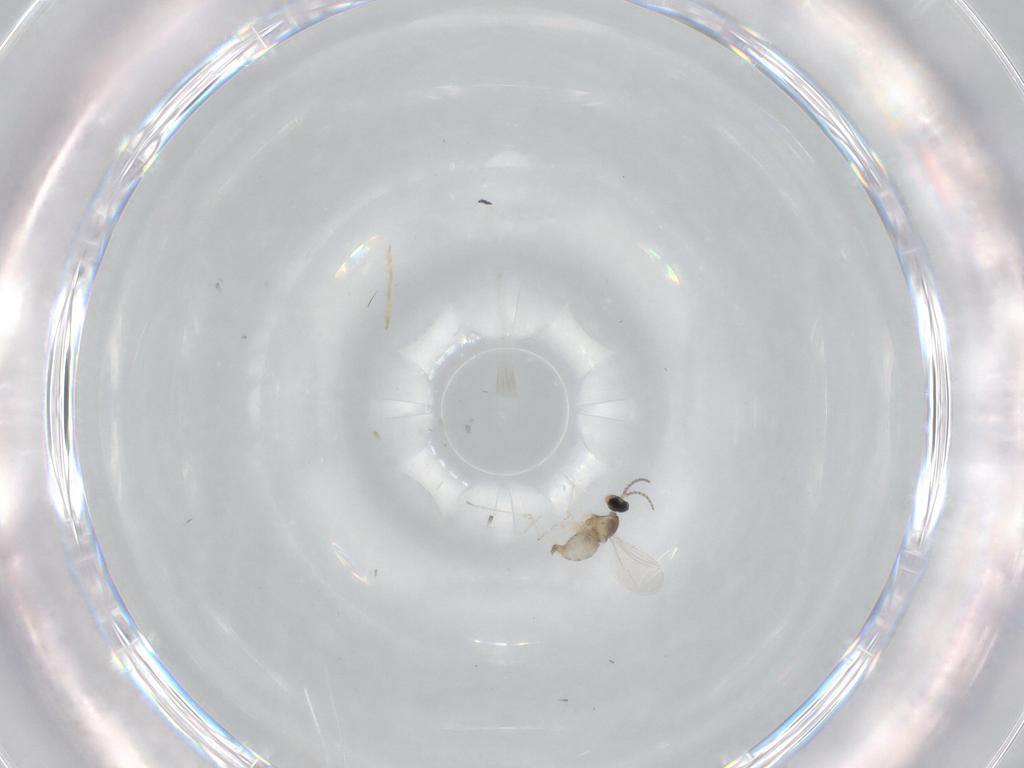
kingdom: Animalia
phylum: Arthropoda
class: Insecta
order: Diptera
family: Cecidomyiidae
